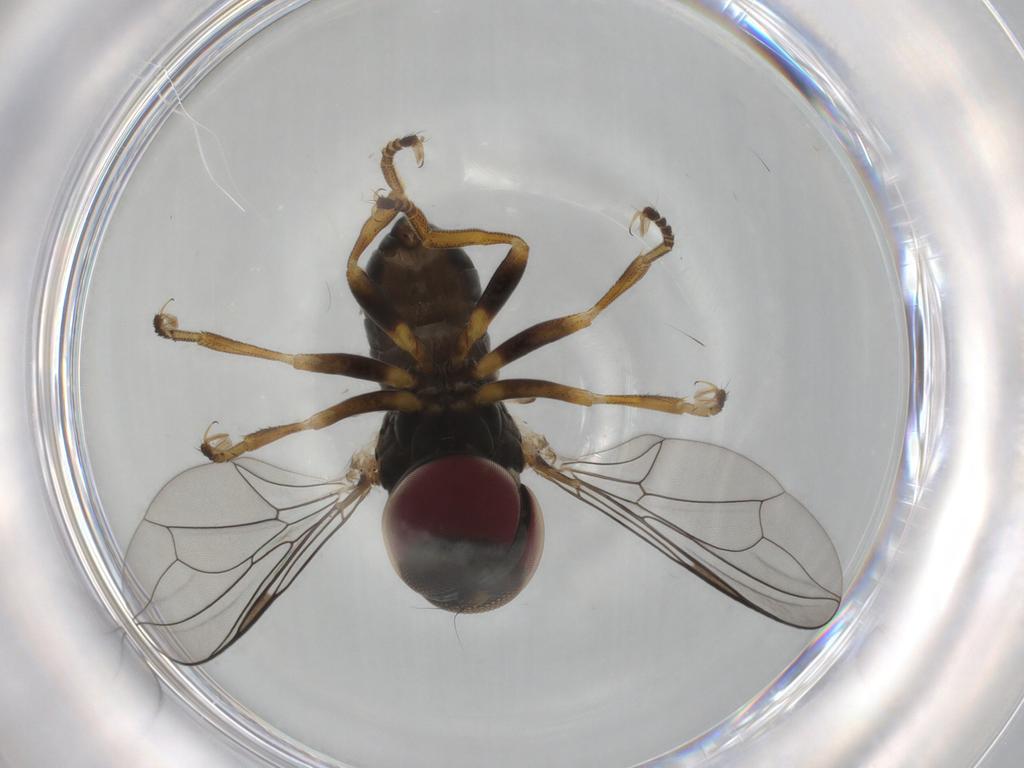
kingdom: Animalia
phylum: Arthropoda
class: Insecta
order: Diptera
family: Pipunculidae
